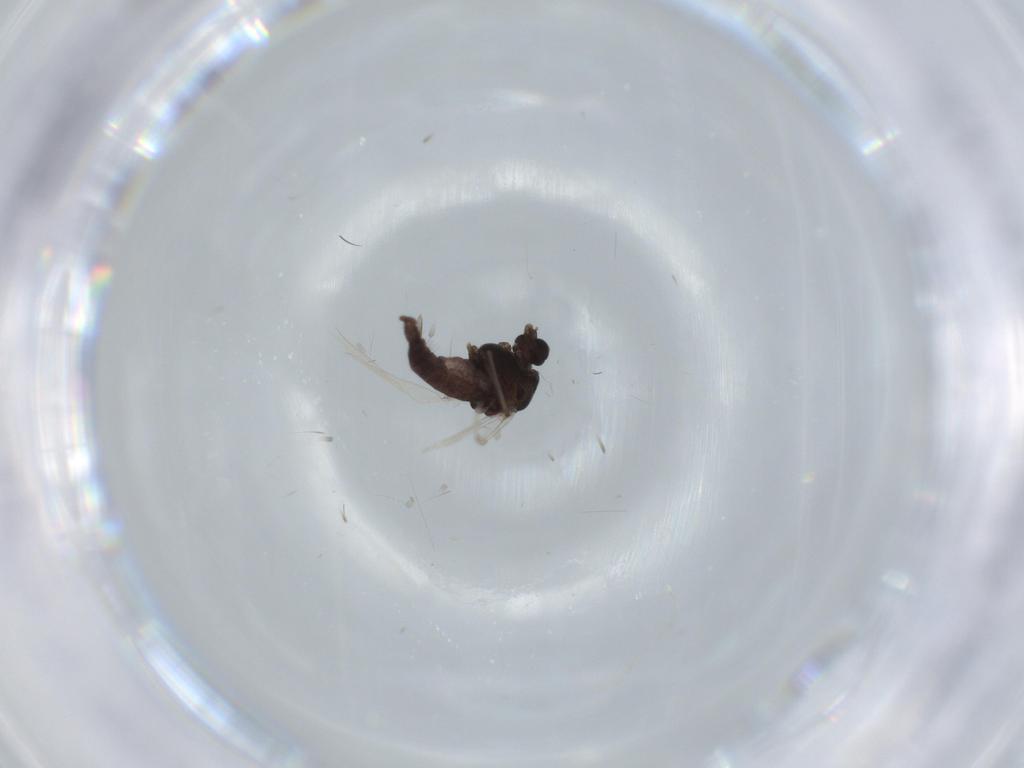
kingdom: Animalia
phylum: Arthropoda
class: Insecta
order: Diptera
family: Chironomidae
